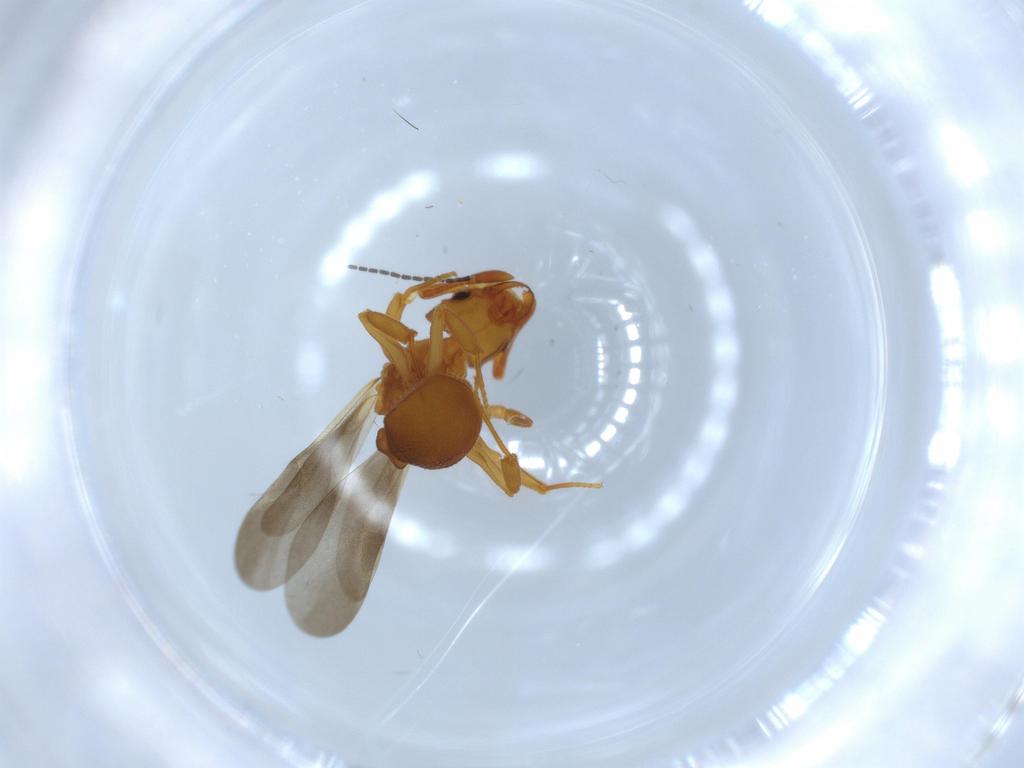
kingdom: Animalia
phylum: Arthropoda
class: Insecta
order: Hymenoptera
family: Formicidae
